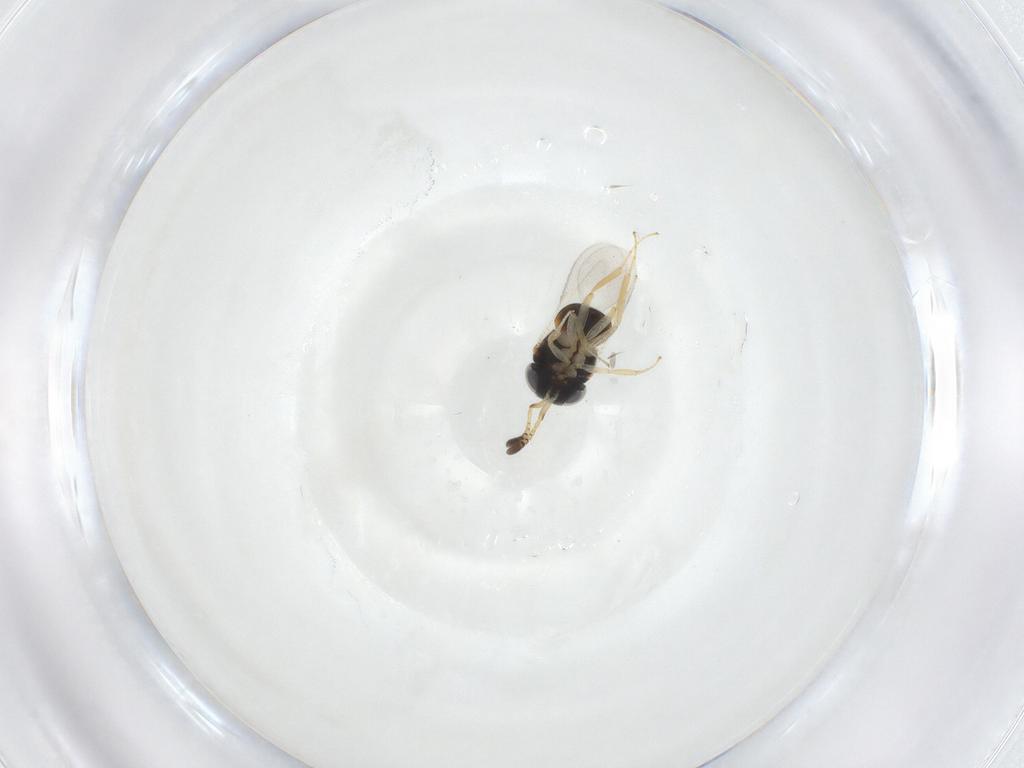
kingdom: Animalia
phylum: Arthropoda
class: Insecta
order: Hymenoptera
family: Scelionidae
